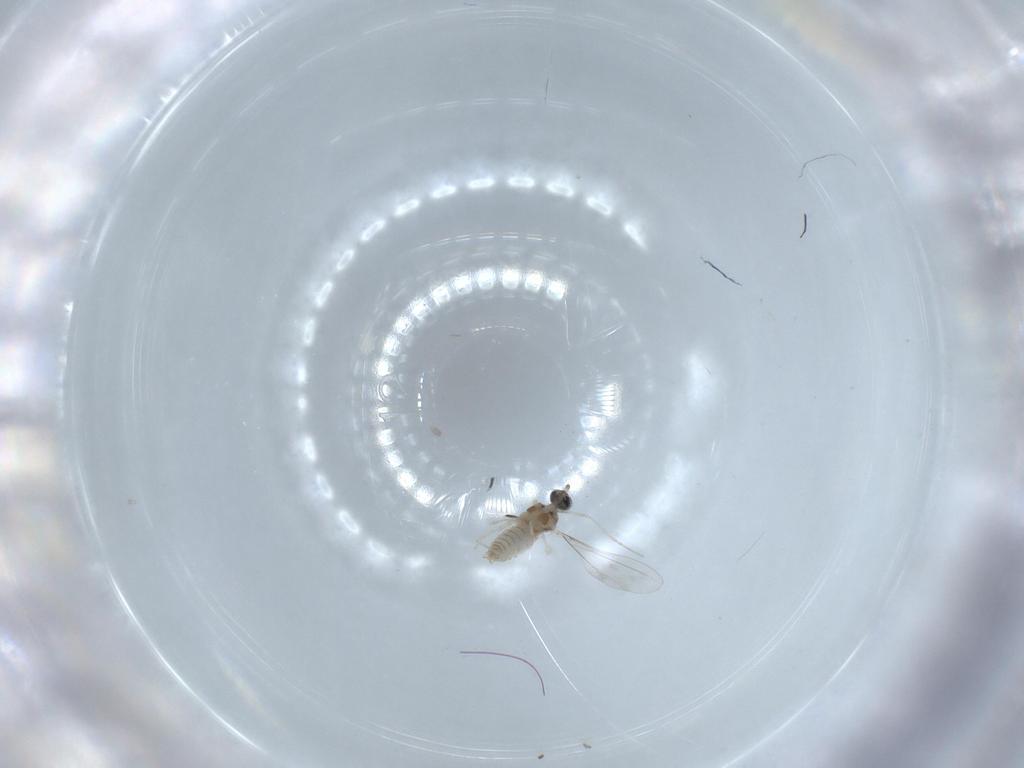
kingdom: Animalia
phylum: Arthropoda
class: Insecta
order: Diptera
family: Cecidomyiidae
